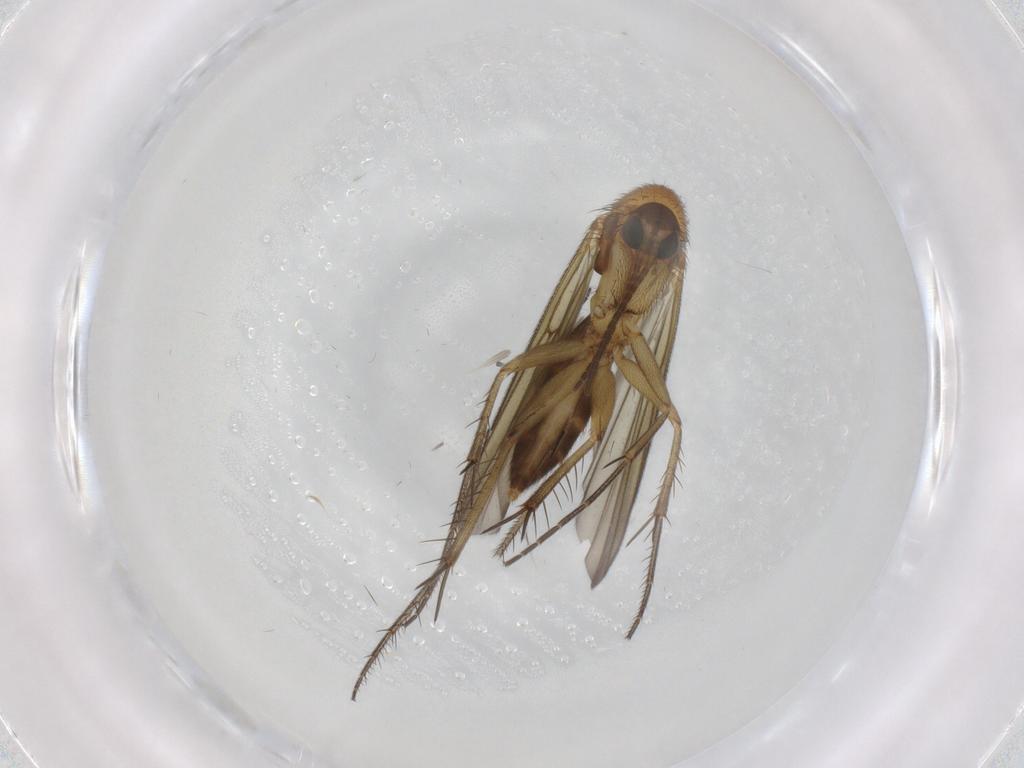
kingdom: Animalia
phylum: Arthropoda
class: Insecta
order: Diptera
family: Sciaridae
